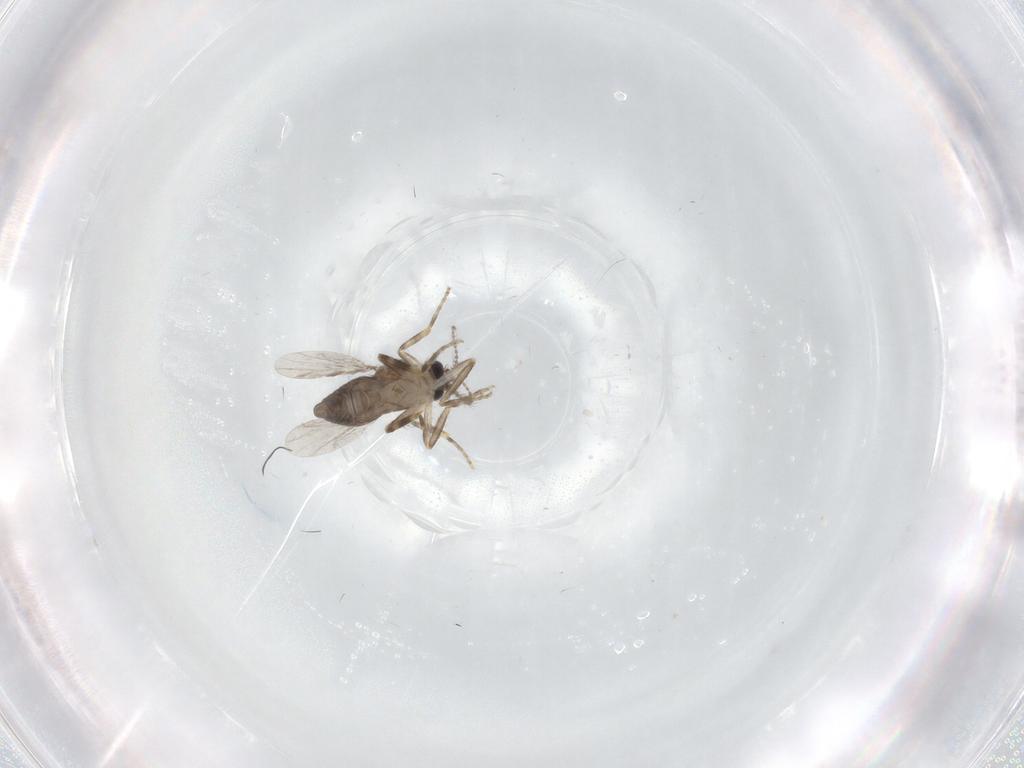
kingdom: Animalia
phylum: Arthropoda
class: Insecta
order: Diptera
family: Ceratopogonidae
